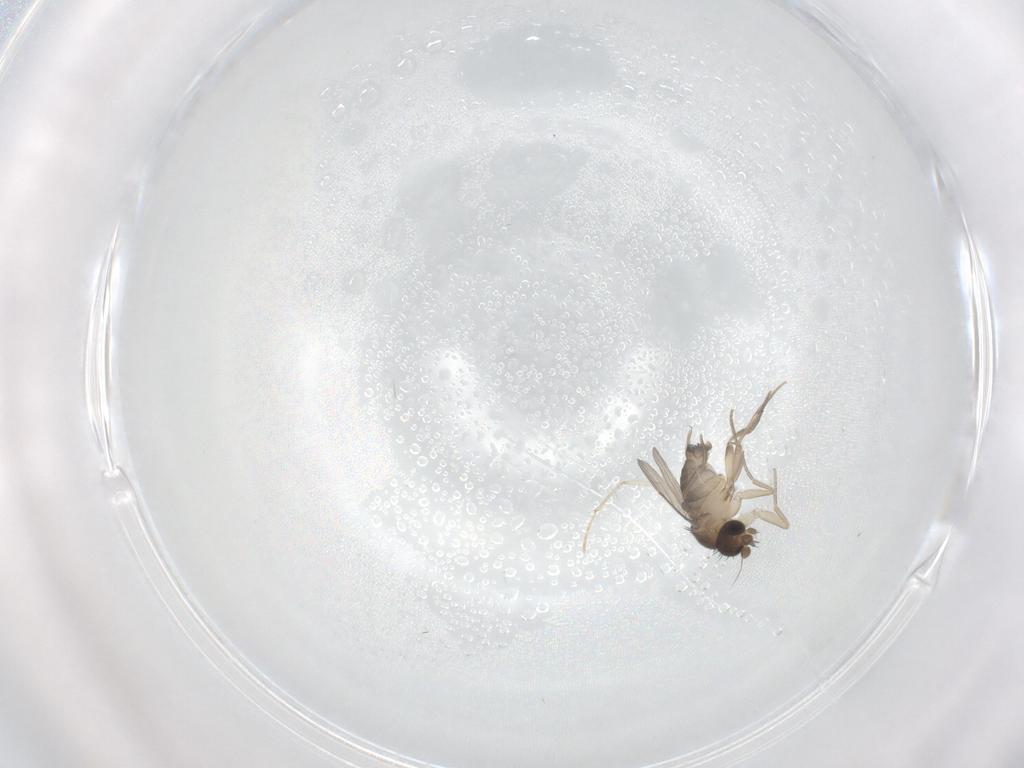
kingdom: Animalia
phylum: Arthropoda
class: Insecta
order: Diptera
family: Phoridae
